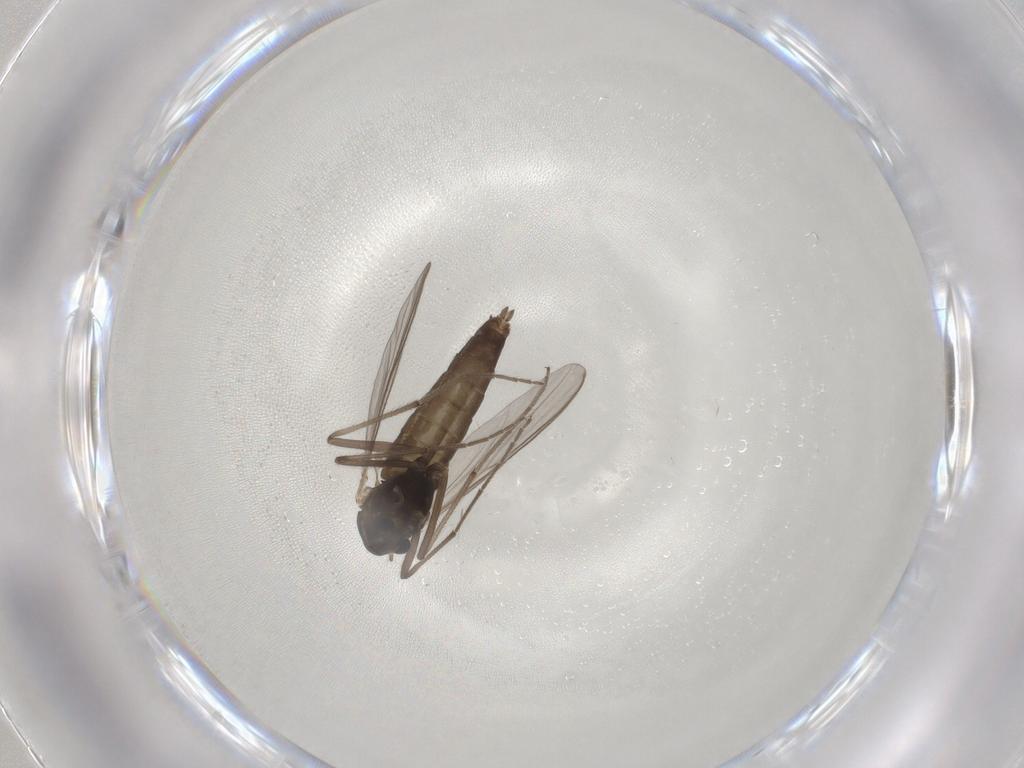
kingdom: Animalia
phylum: Arthropoda
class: Insecta
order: Diptera
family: Chironomidae
